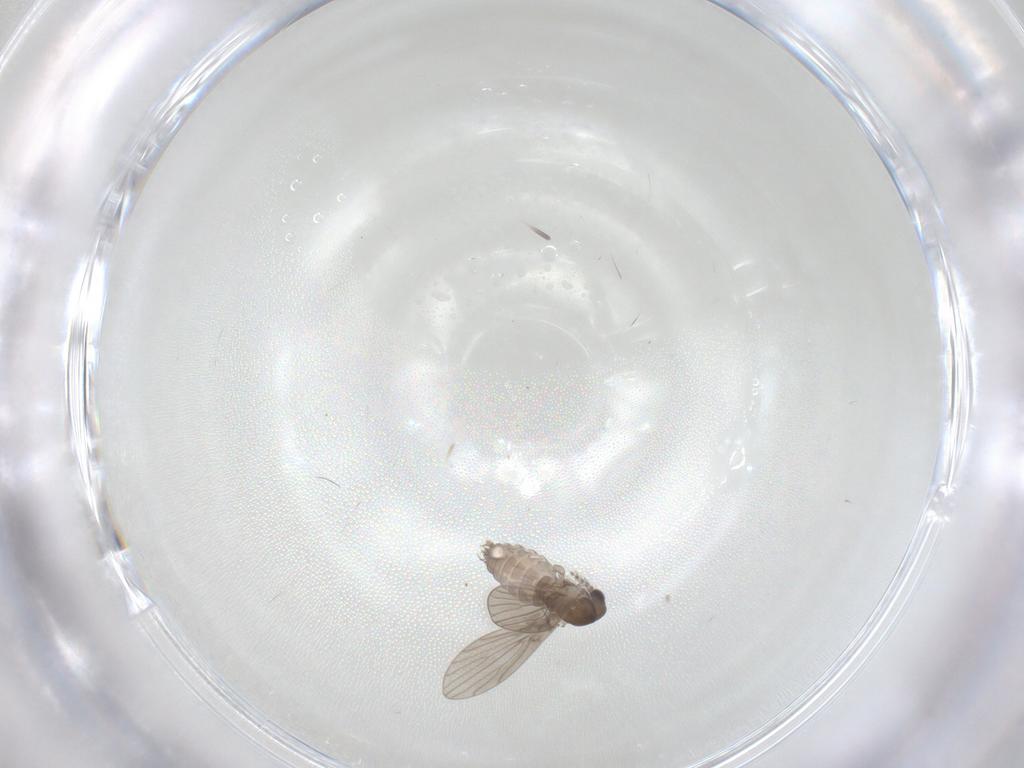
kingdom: Animalia
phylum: Arthropoda
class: Insecta
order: Diptera
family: Psychodidae
